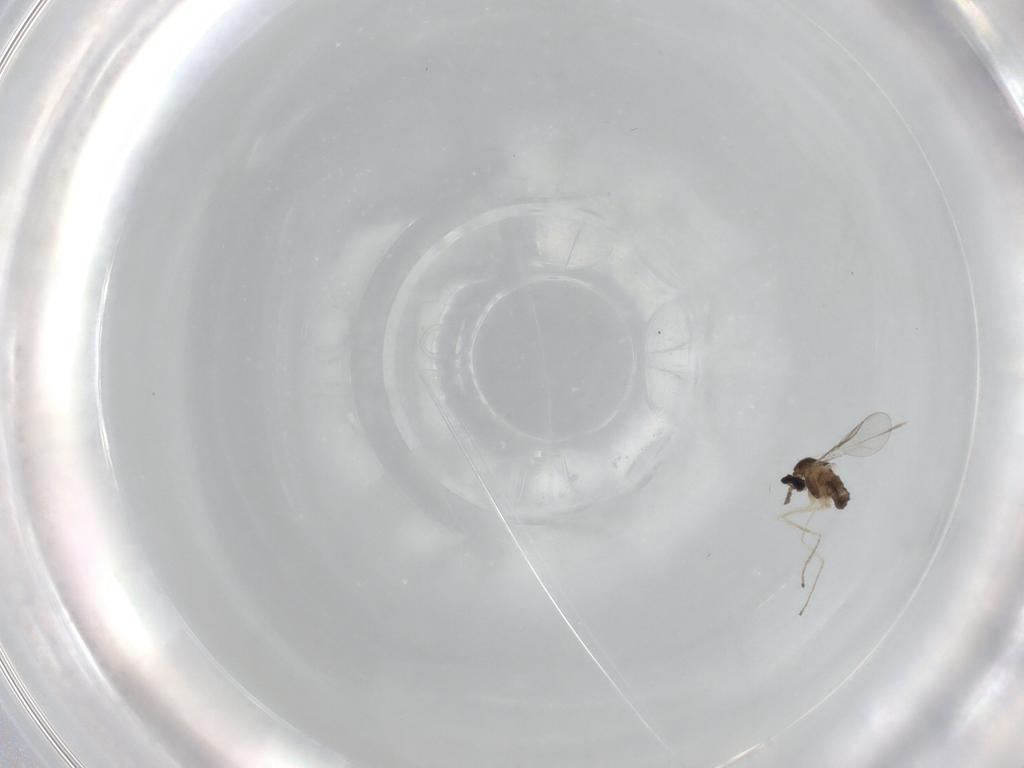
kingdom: Animalia
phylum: Arthropoda
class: Insecta
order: Diptera
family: Cecidomyiidae
